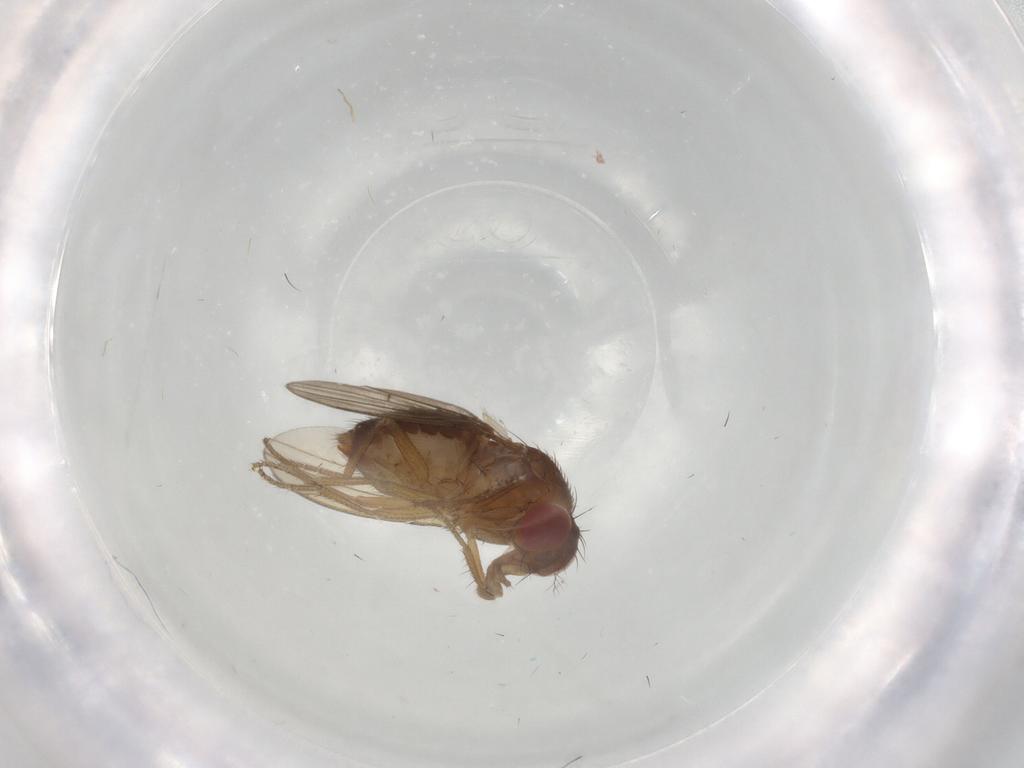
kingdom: Animalia
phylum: Arthropoda
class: Insecta
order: Diptera
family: Drosophilidae
